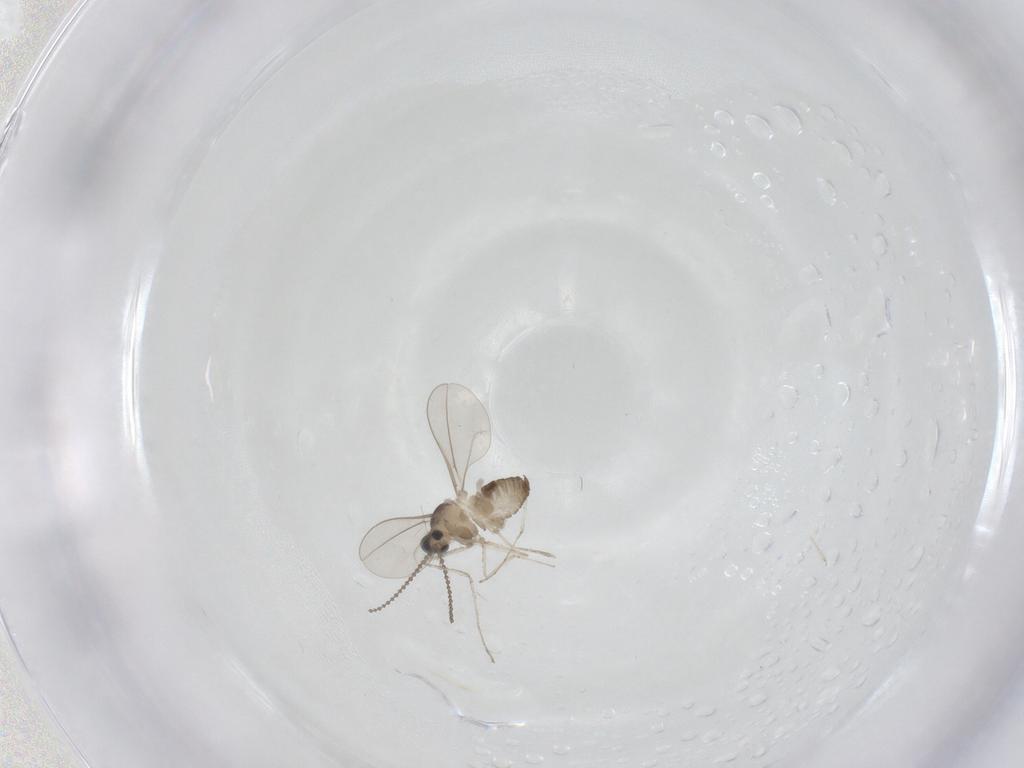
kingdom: Animalia
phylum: Arthropoda
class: Insecta
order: Diptera
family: Cecidomyiidae
